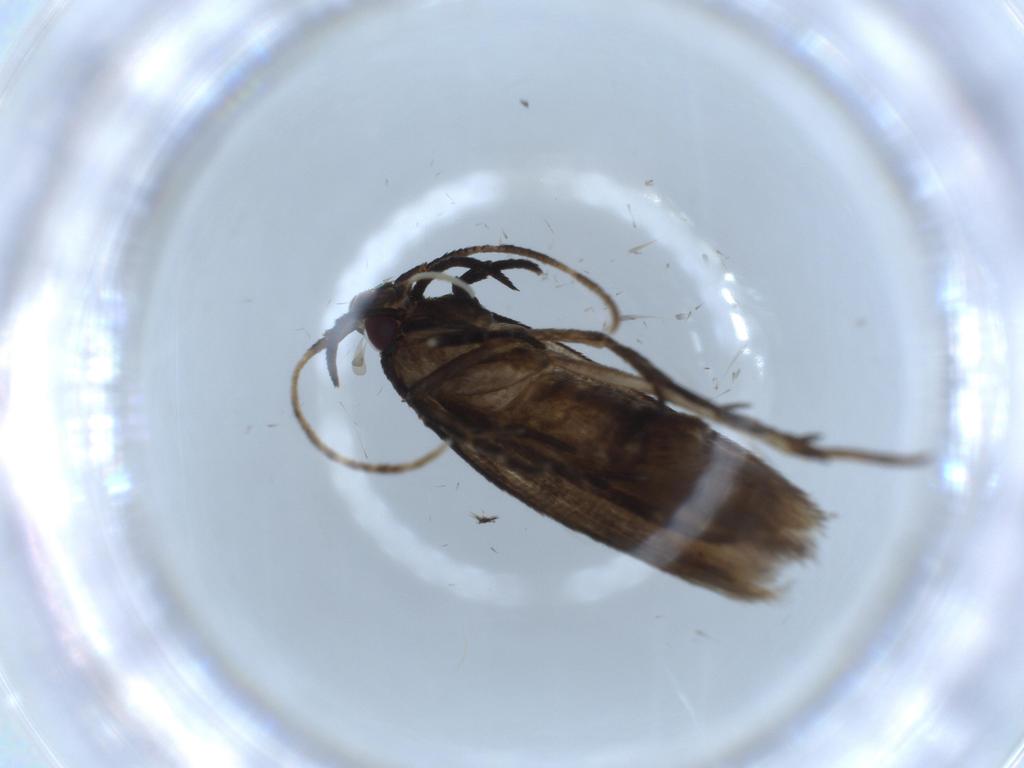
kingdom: Animalia
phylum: Arthropoda
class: Insecta
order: Lepidoptera
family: Cosmopterigidae
